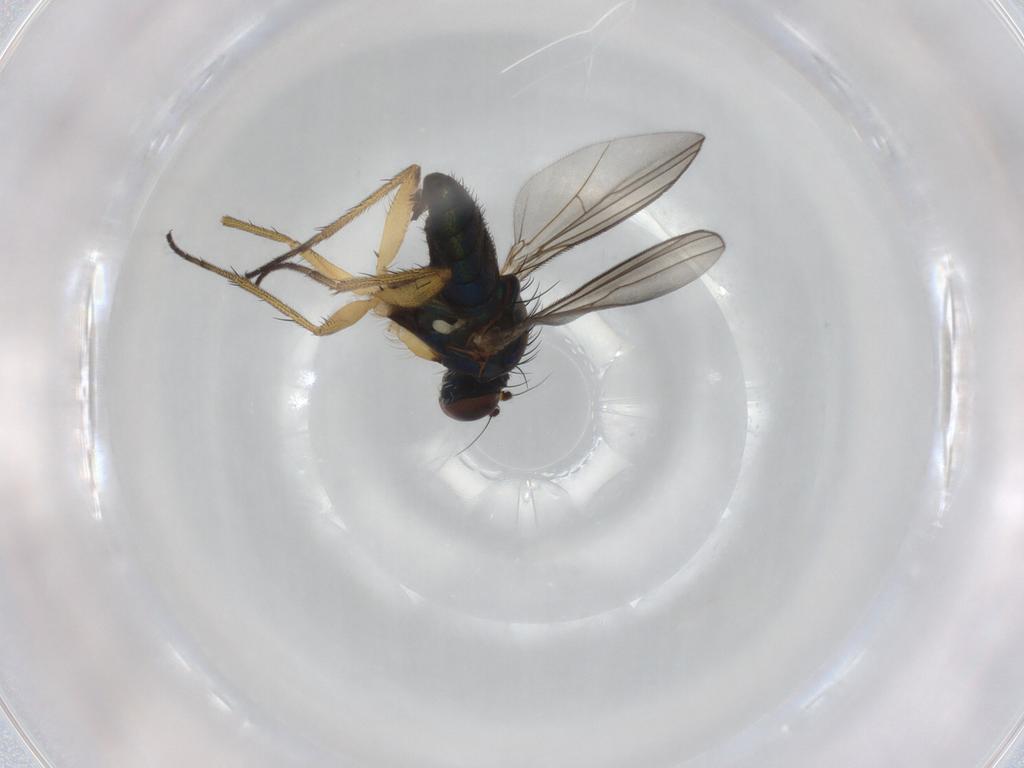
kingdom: Animalia
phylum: Arthropoda
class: Insecta
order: Diptera
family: Dolichopodidae
